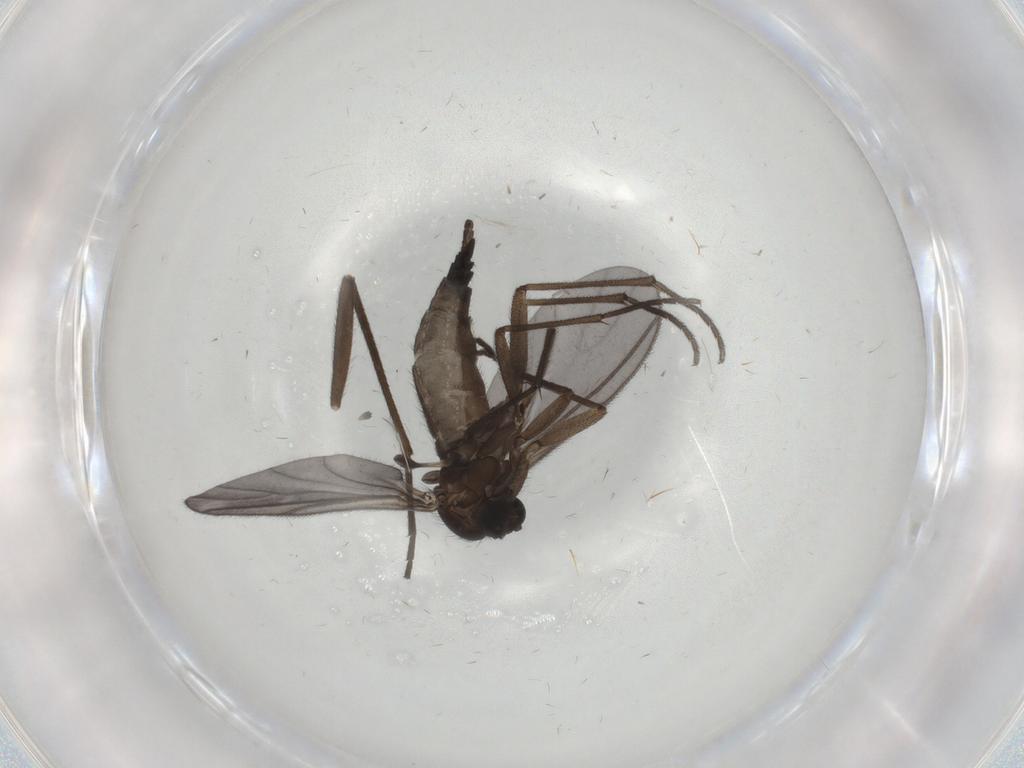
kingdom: Animalia
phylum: Arthropoda
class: Insecta
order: Diptera
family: Sciaridae
